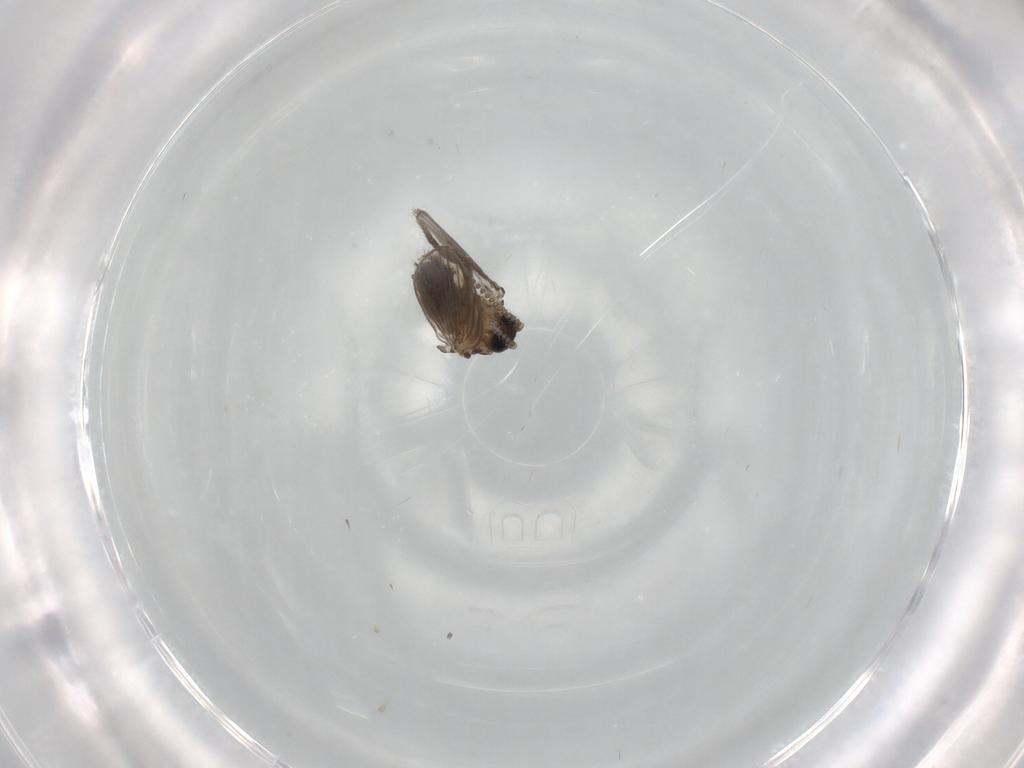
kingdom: Animalia
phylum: Arthropoda
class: Insecta
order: Diptera
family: Psychodidae
